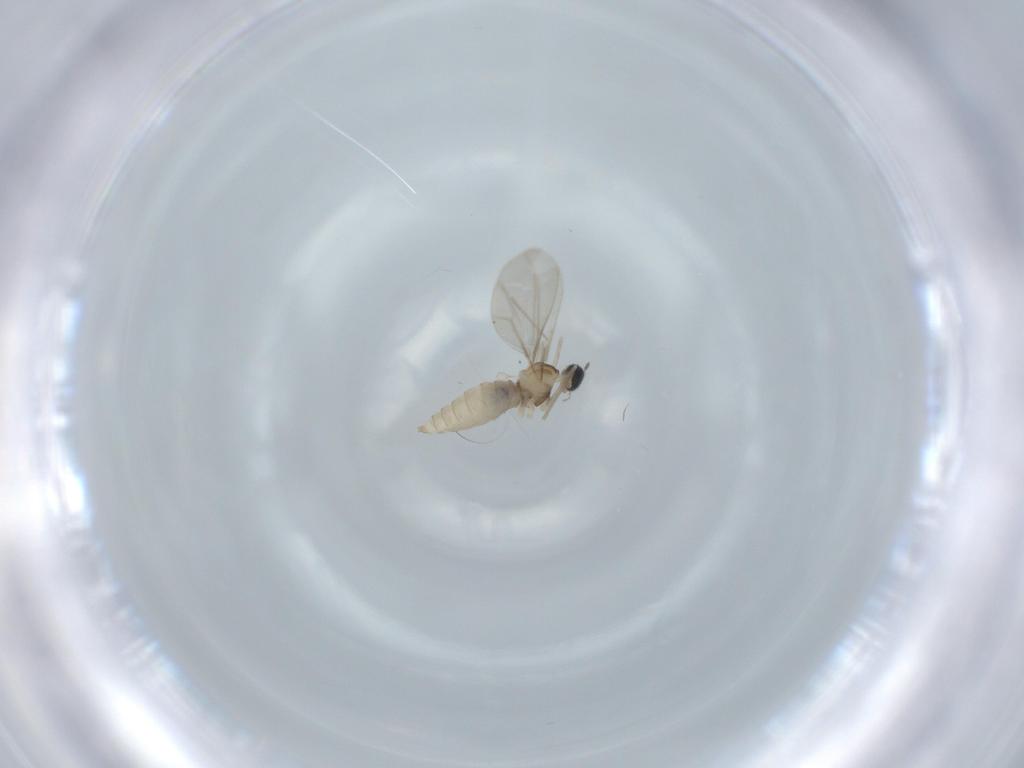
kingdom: Animalia
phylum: Arthropoda
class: Insecta
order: Diptera
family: Cecidomyiidae
